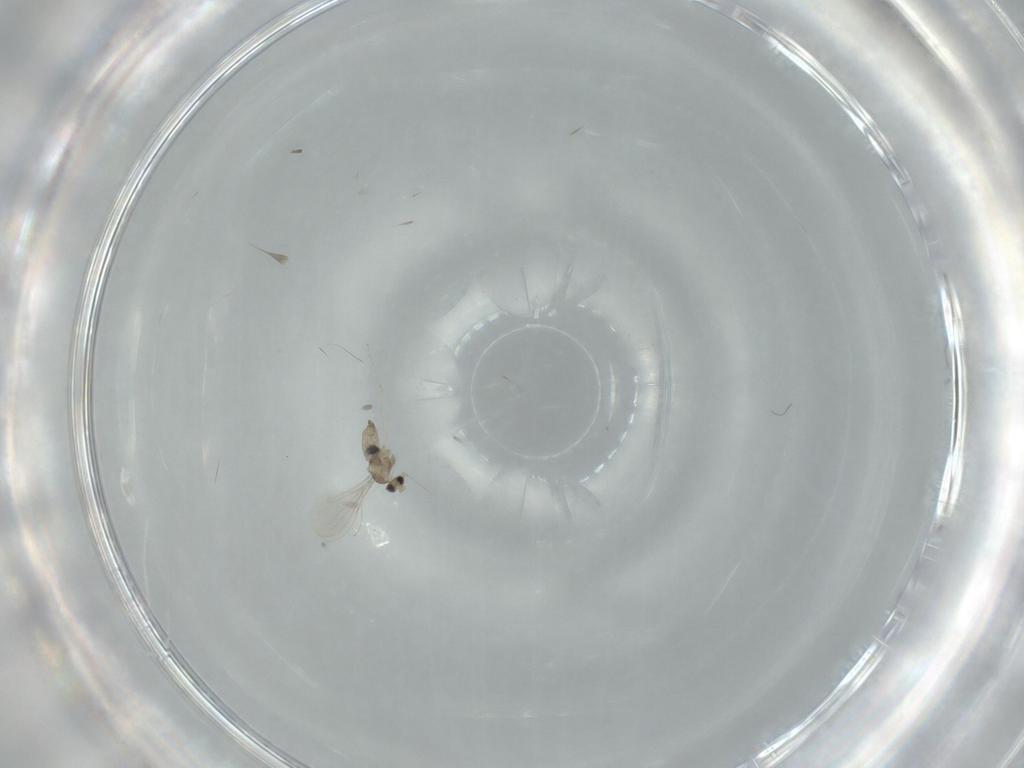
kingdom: Animalia
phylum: Arthropoda
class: Insecta
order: Diptera
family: Cecidomyiidae
